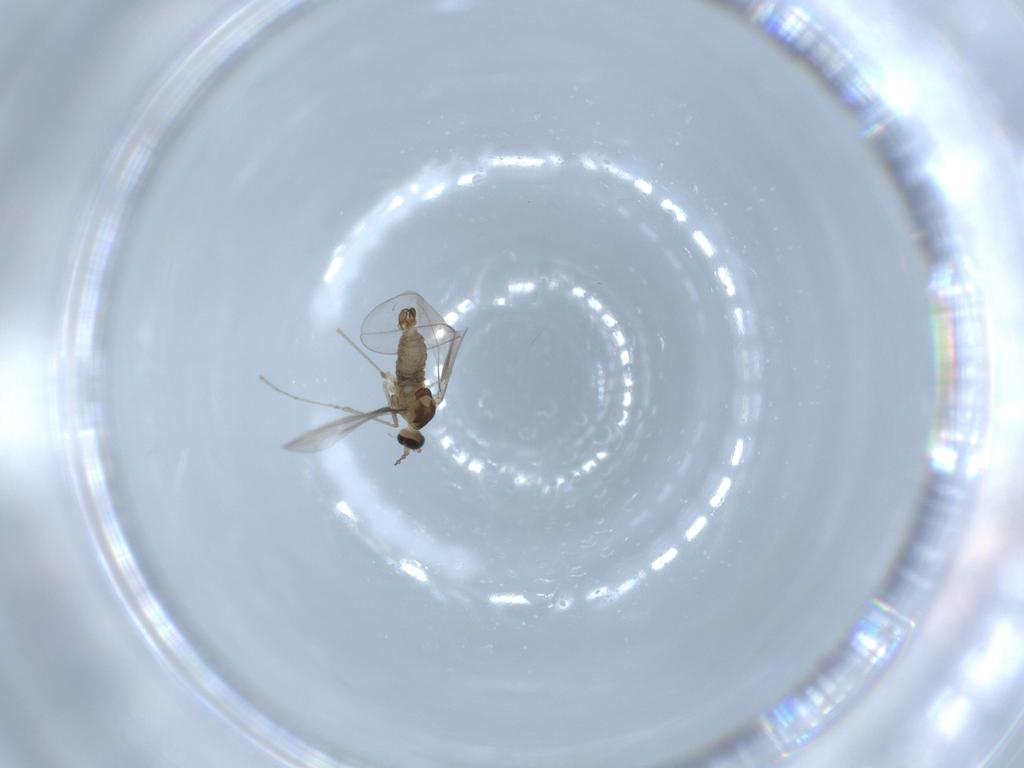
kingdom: Animalia
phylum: Arthropoda
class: Insecta
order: Diptera
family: Cecidomyiidae
